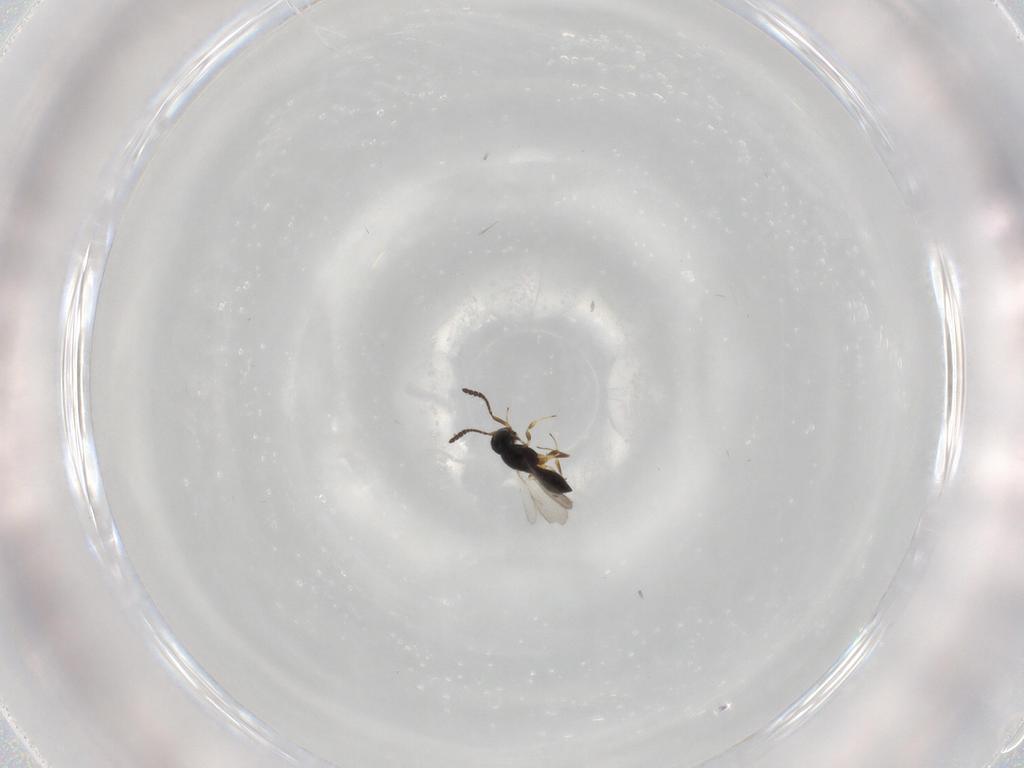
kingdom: Animalia
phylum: Arthropoda
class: Insecta
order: Hymenoptera
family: Scelionidae
